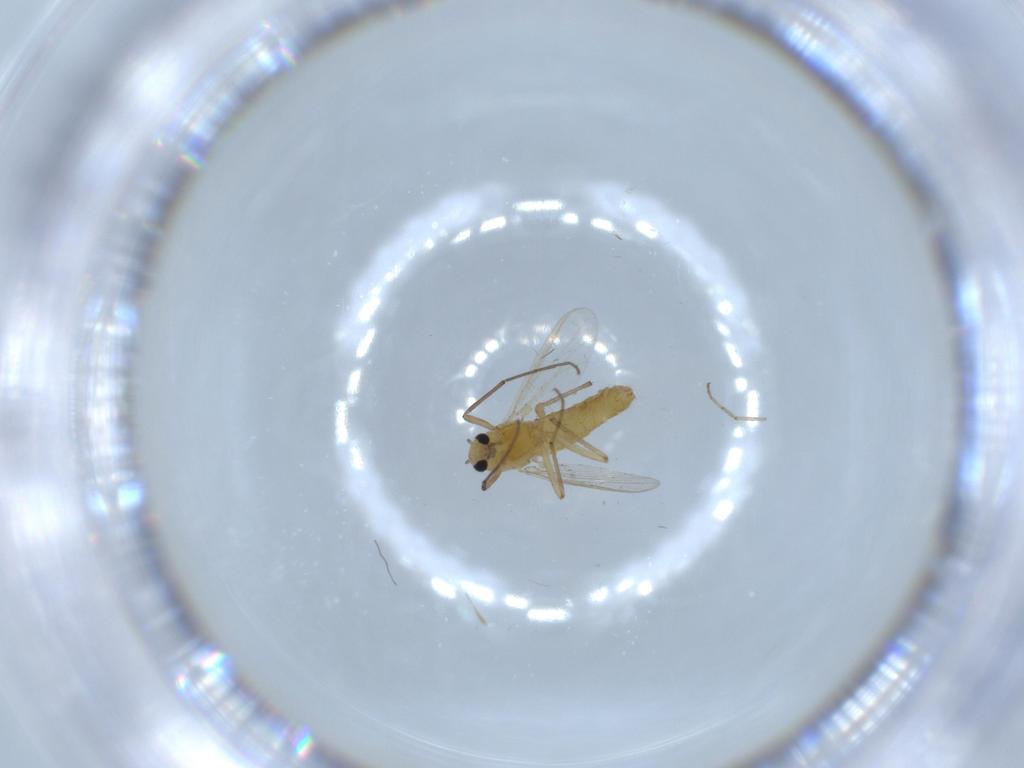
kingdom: Animalia
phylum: Arthropoda
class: Insecta
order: Diptera
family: Chironomidae
